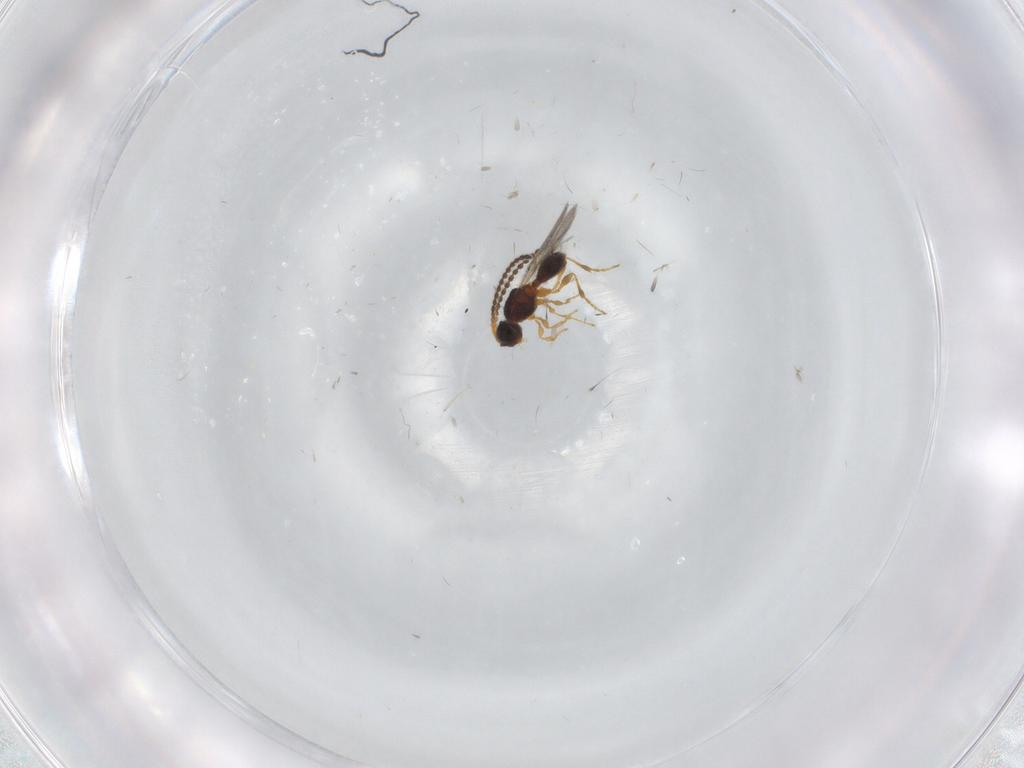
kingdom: Animalia
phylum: Arthropoda
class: Insecta
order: Hymenoptera
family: Diapriidae
